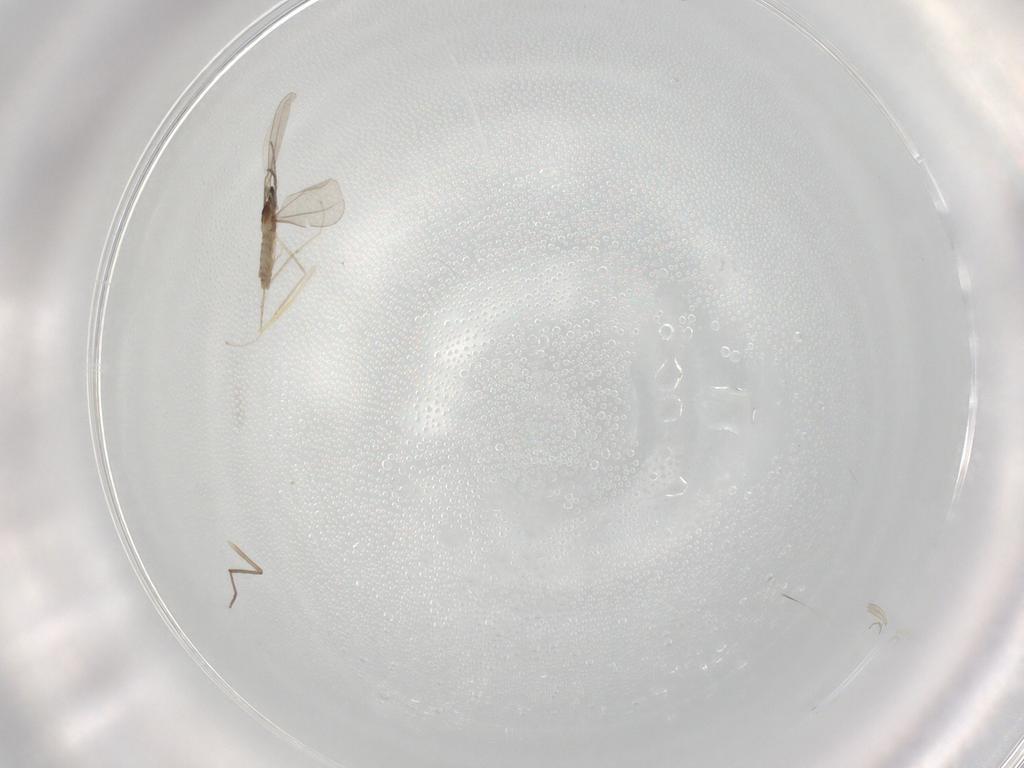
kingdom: Animalia
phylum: Arthropoda
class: Insecta
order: Diptera
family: Cecidomyiidae
